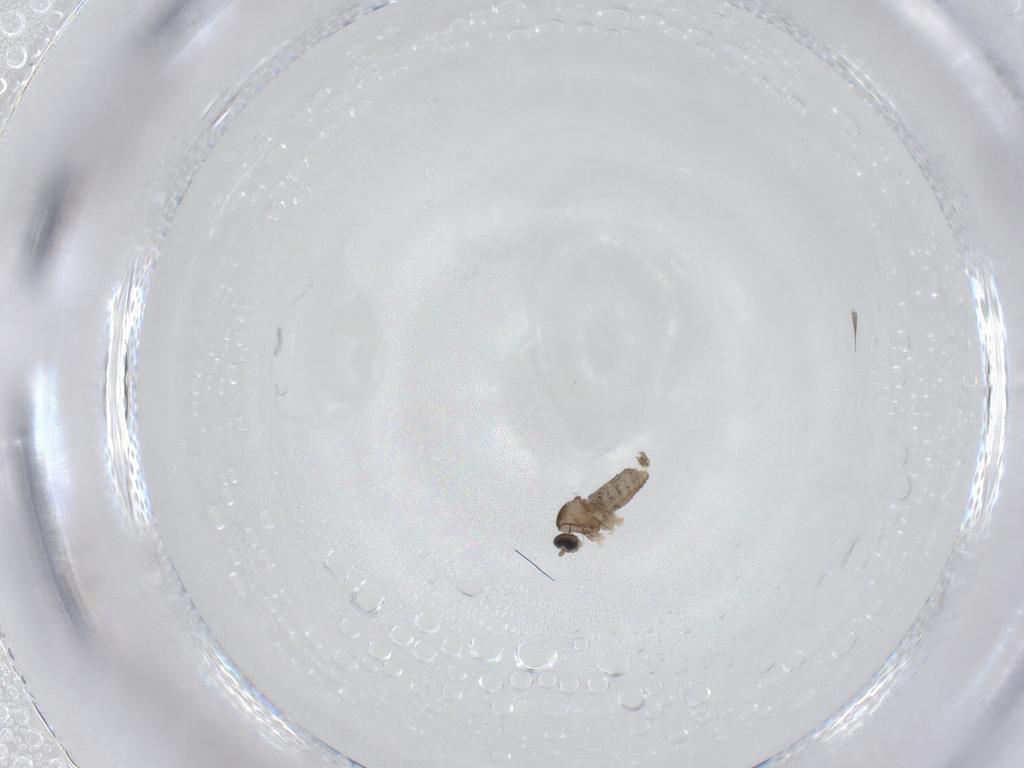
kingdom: Animalia
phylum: Arthropoda
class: Insecta
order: Diptera
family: Cecidomyiidae
